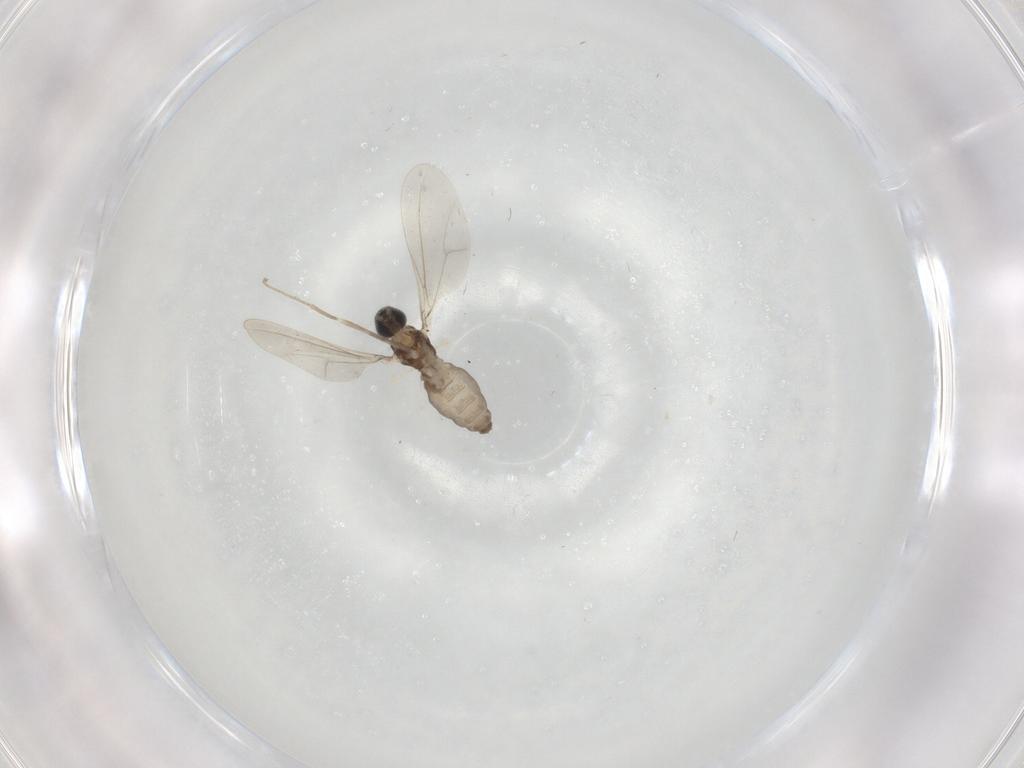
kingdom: Animalia
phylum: Arthropoda
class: Insecta
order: Diptera
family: Cecidomyiidae
